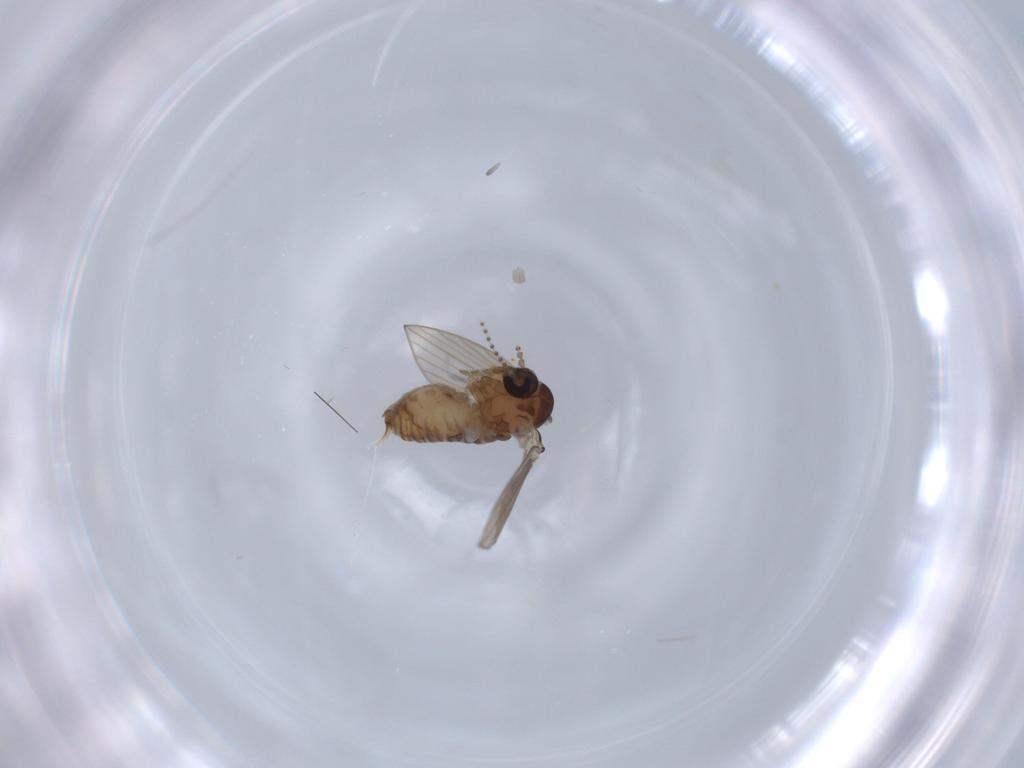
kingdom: Animalia
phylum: Arthropoda
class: Insecta
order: Diptera
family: Psychodidae
